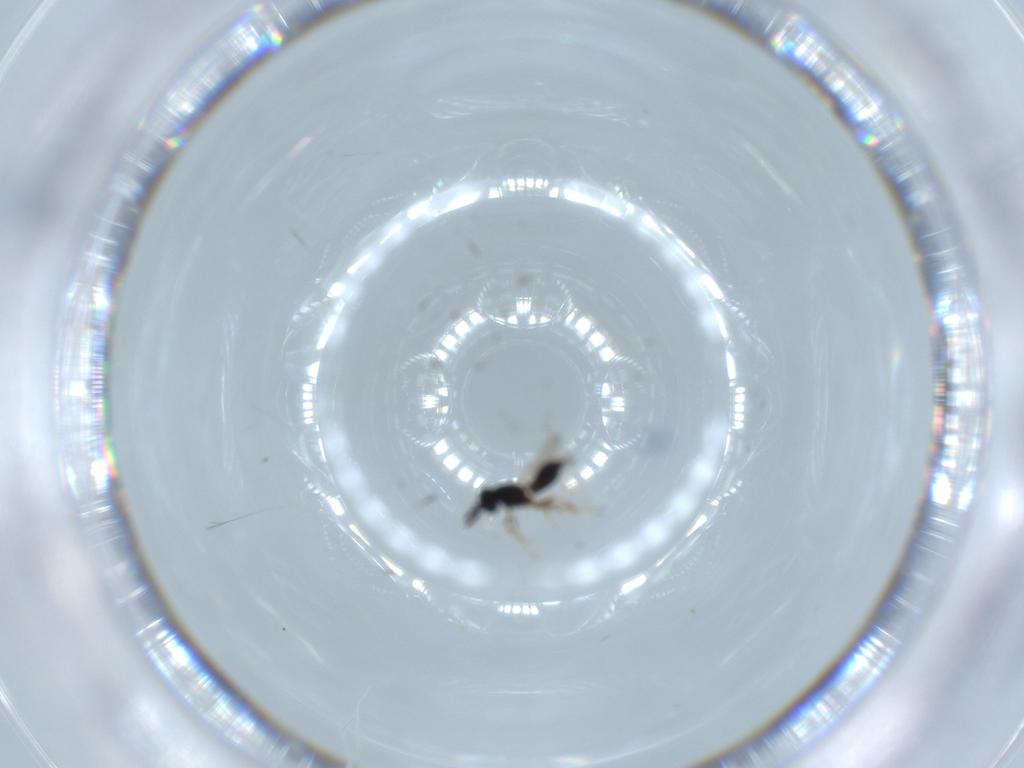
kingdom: Animalia
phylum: Arthropoda
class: Insecta
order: Hymenoptera
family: Scelionidae
